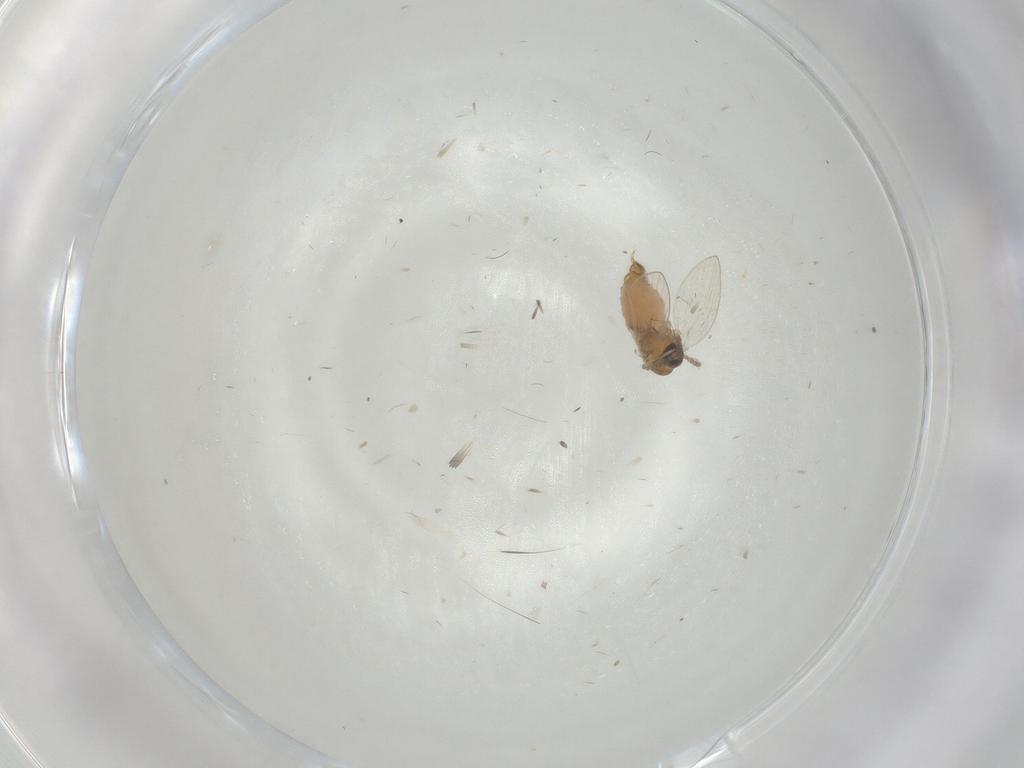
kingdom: Animalia
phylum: Arthropoda
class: Insecta
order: Diptera
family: Psychodidae
